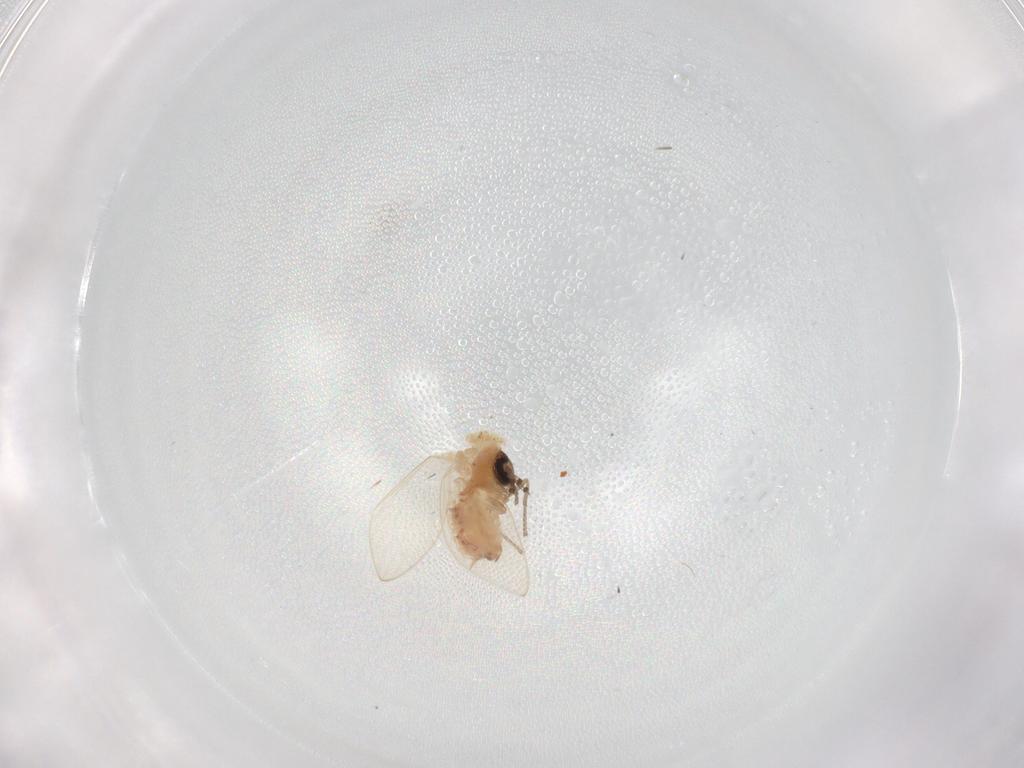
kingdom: Animalia
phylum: Arthropoda
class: Insecta
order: Diptera
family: Psychodidae
